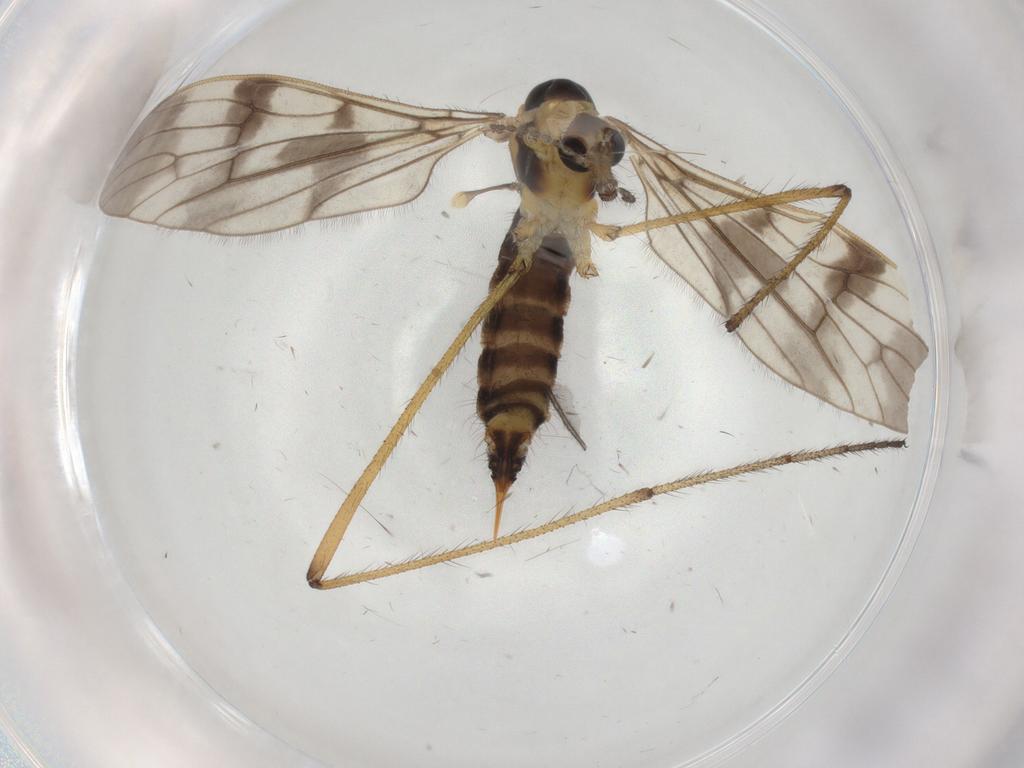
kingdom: Animalia
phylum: Arthropoda
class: Insecta
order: Diptera
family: Limoniidae
